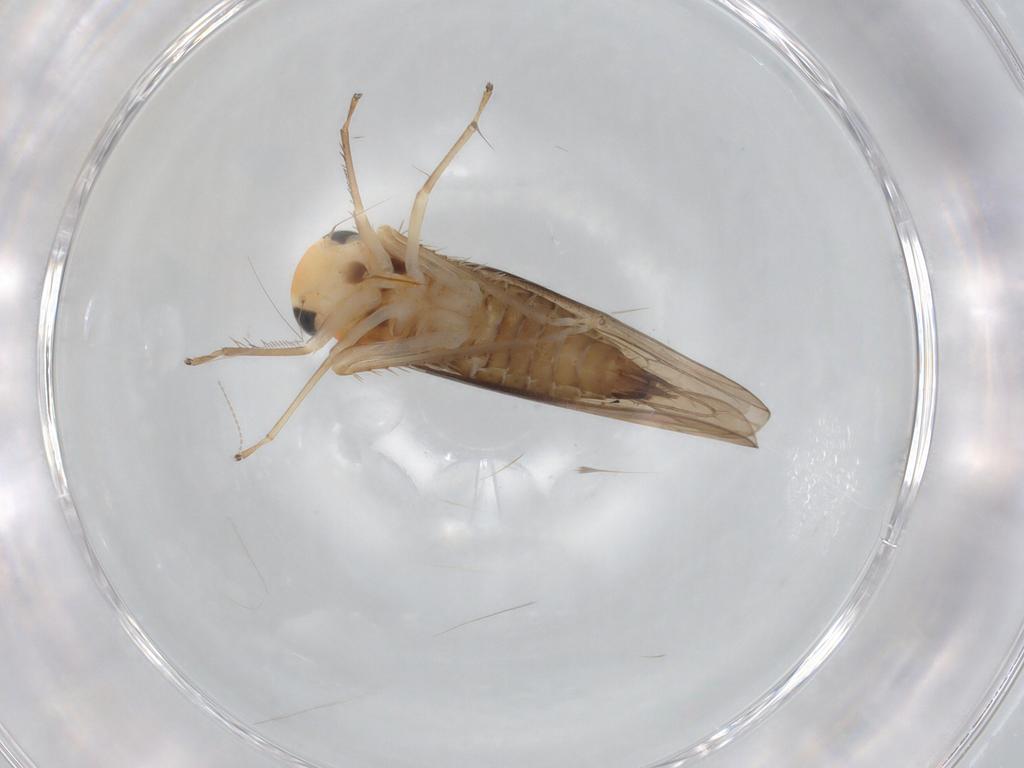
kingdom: Animalia
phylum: Arthropoda
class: Insecta
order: Hemiptera
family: Cicadellidae
